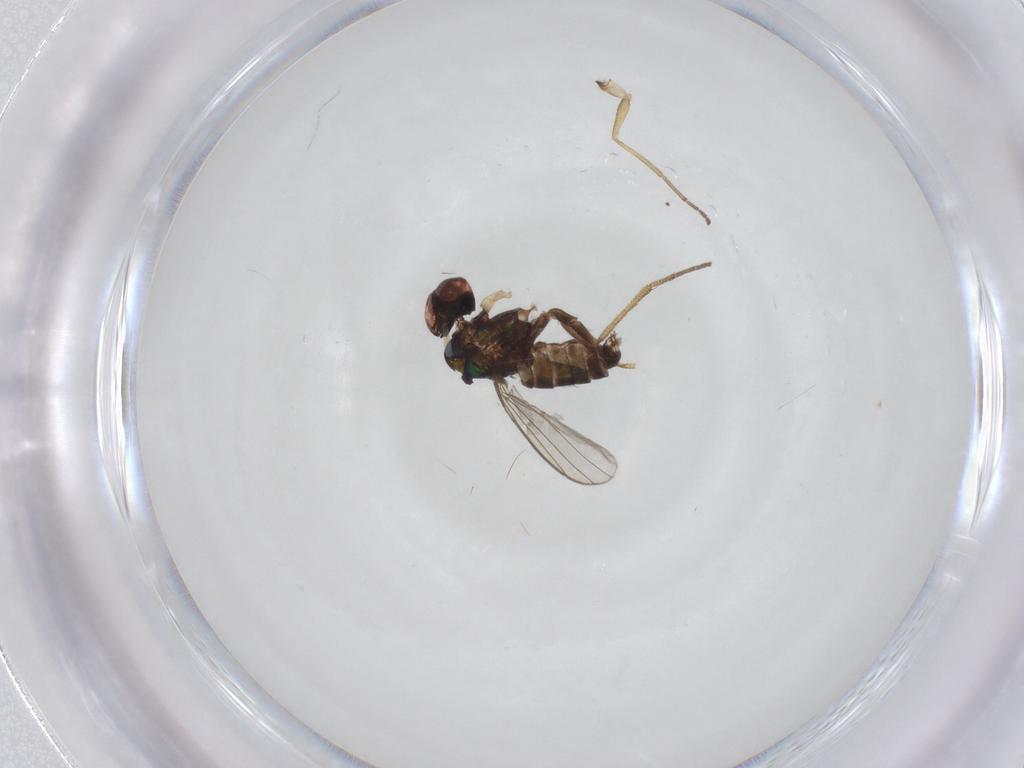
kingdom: Animalia
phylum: Arthropoda
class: Insecta
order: Diptera
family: Dolichopodidae
